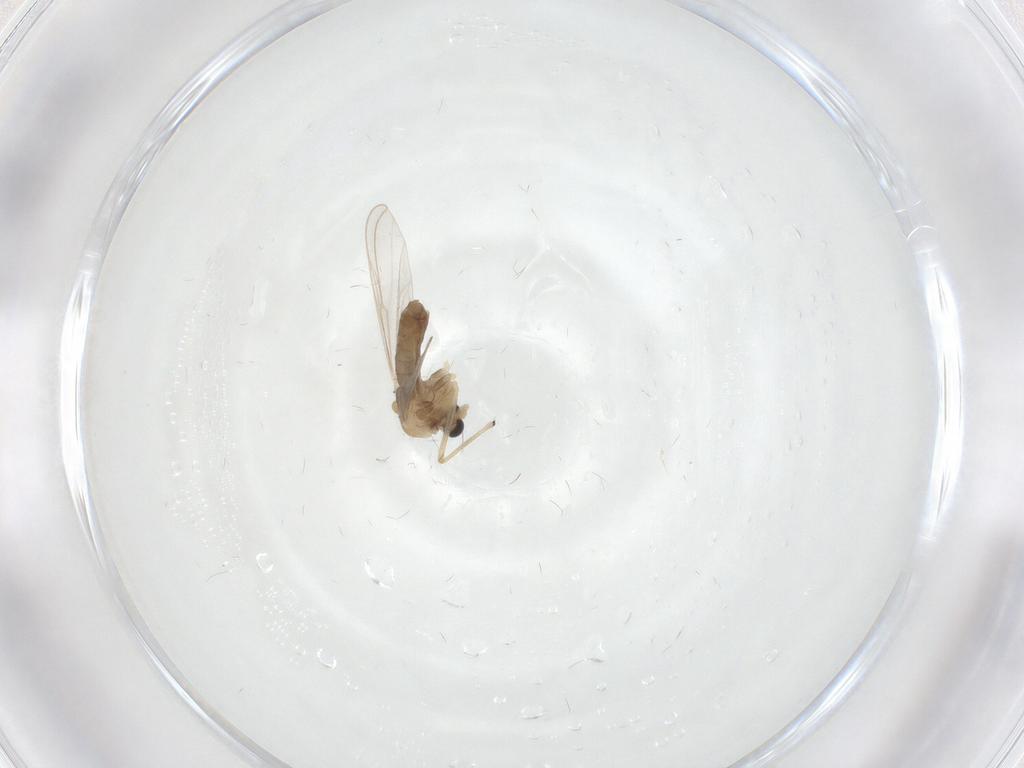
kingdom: Animalia
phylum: Arthropoda
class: Insecta
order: Diptera
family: Chironomidae
